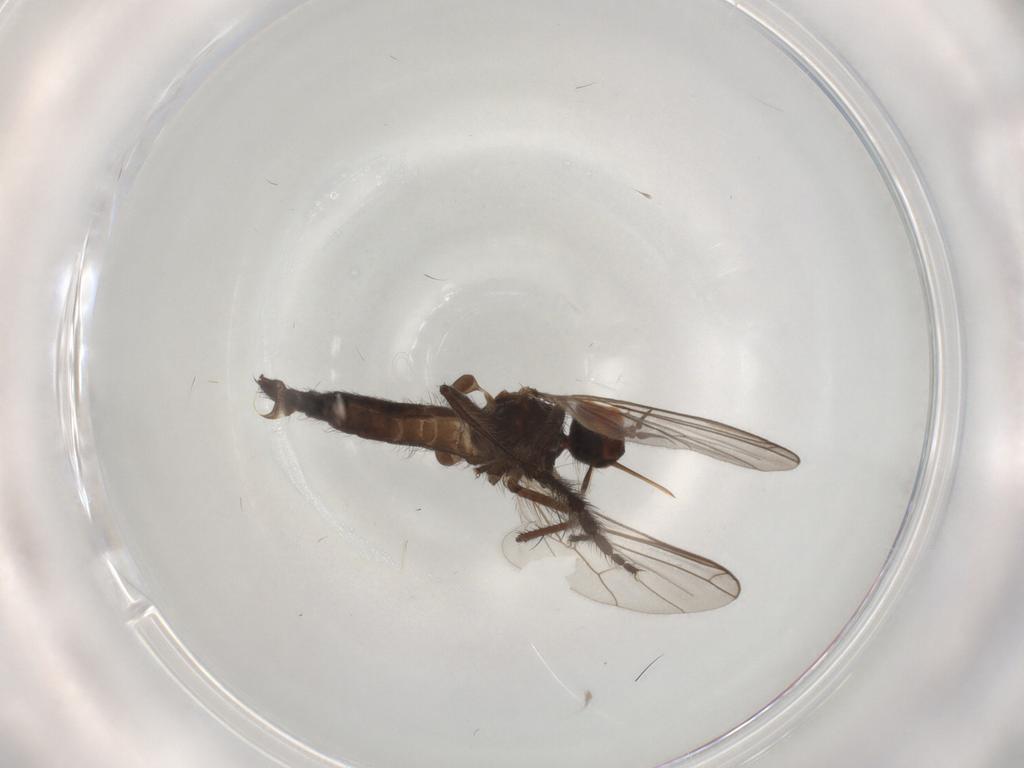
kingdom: Animalia
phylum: Arthropoda
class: Insecta
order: Diptera
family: Empididae
